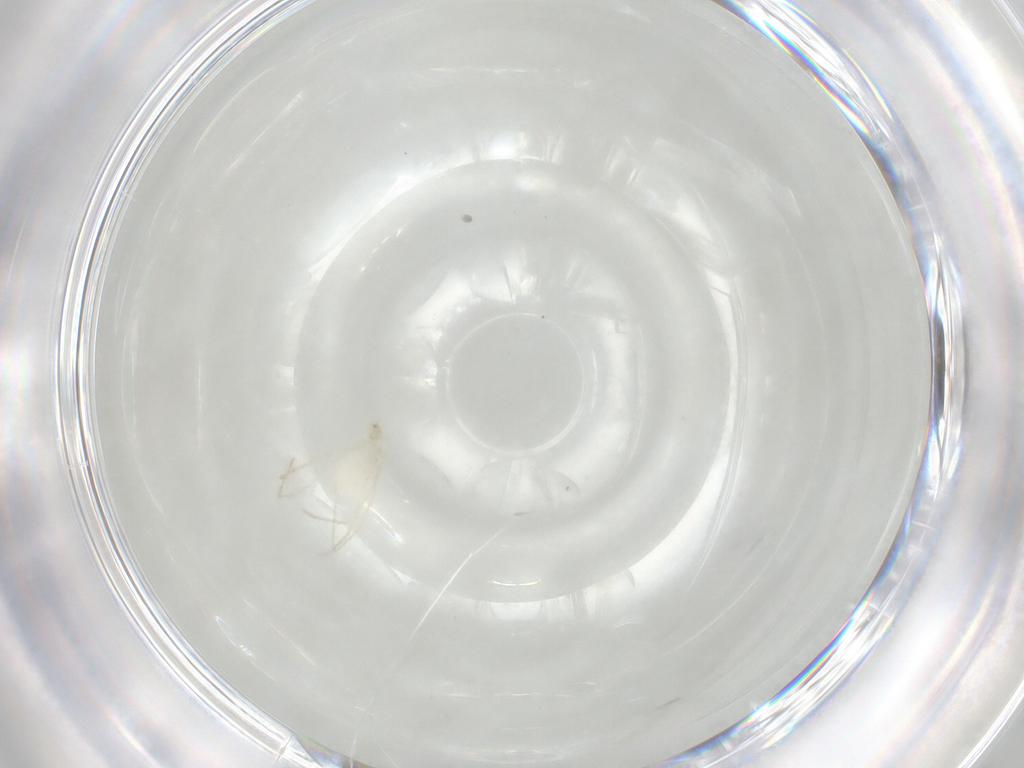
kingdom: Animalia
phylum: Arthropoda
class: Arachnida
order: Trombidiformes
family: Erythraeidae
